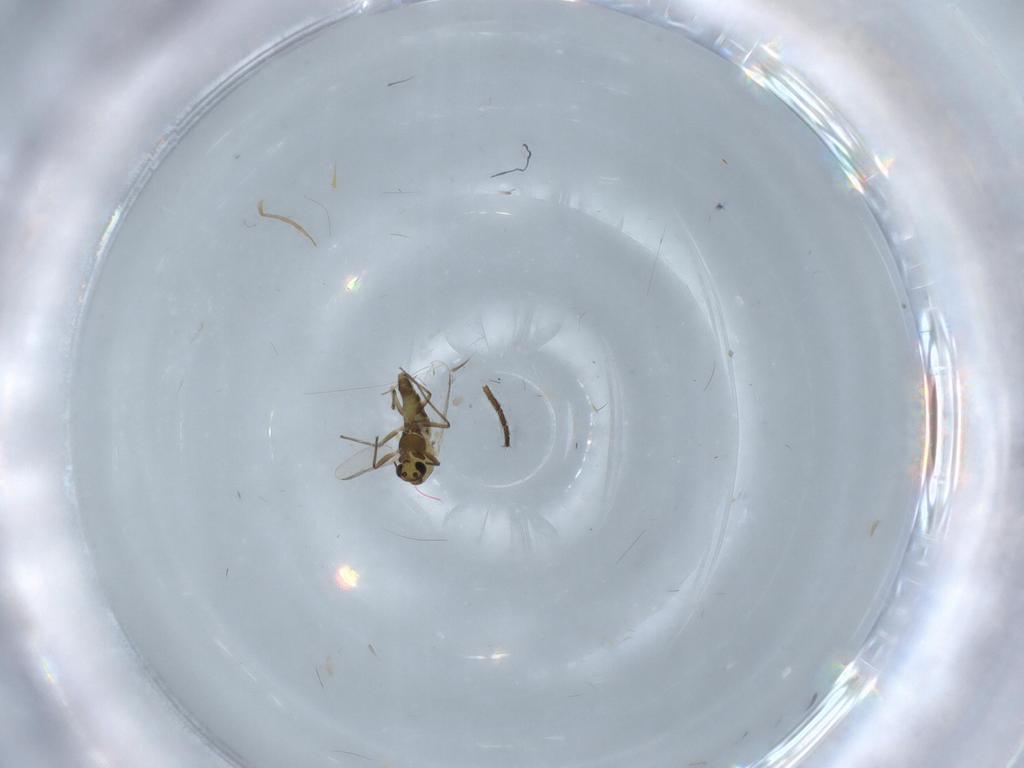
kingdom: Animalia
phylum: Arthropoda
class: Insecta
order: Diptera
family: Chironomidae
